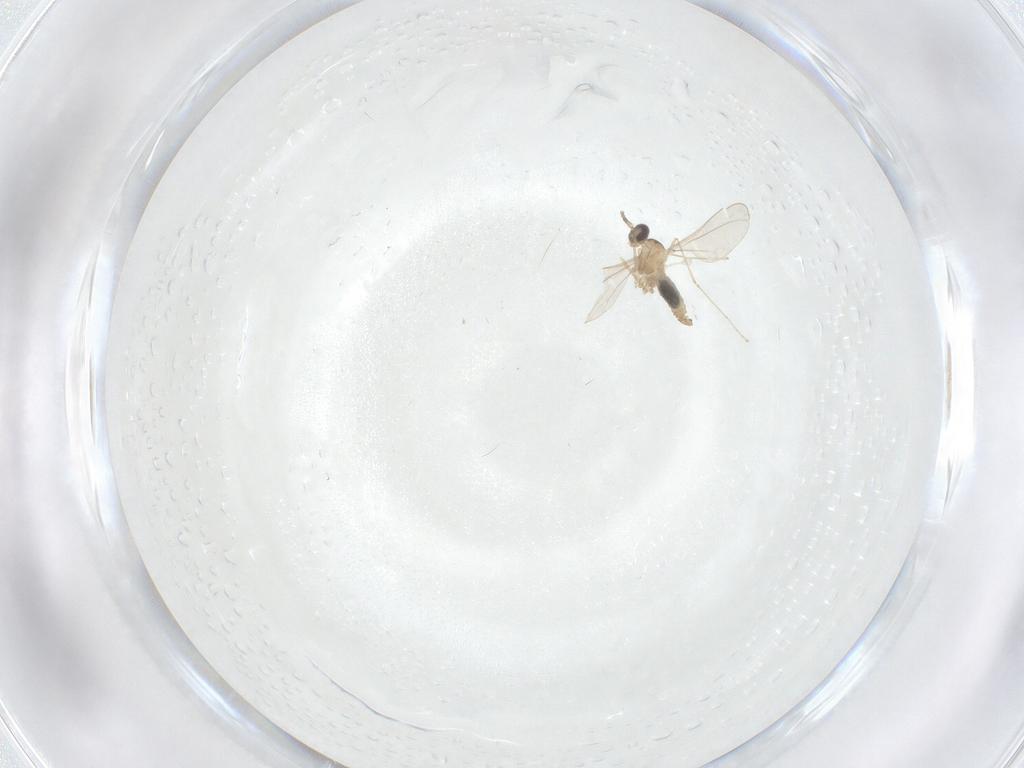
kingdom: Animalia
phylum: Arthropoda
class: Insecta
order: Diptera
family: Cecidomyiidae
